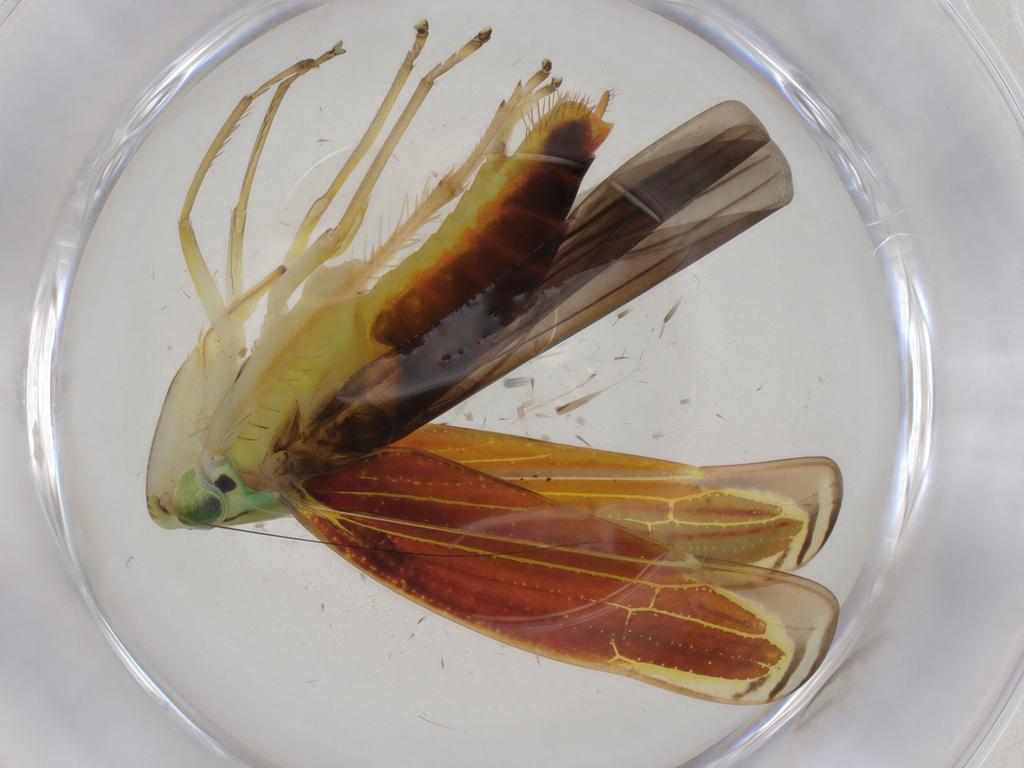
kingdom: Animalia
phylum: Arthropoda
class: Insecta
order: Hemiptera
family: Cicadellidae
